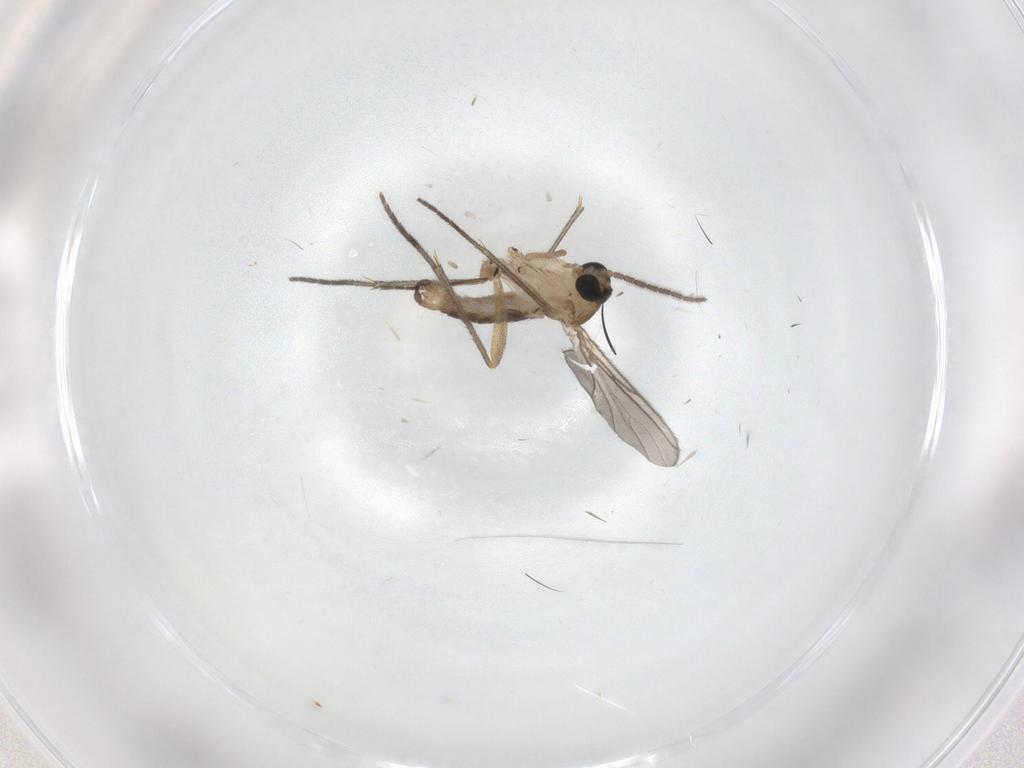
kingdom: Animalia
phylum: Arthropoda
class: Insecta
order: Diptera
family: Sciaridae
